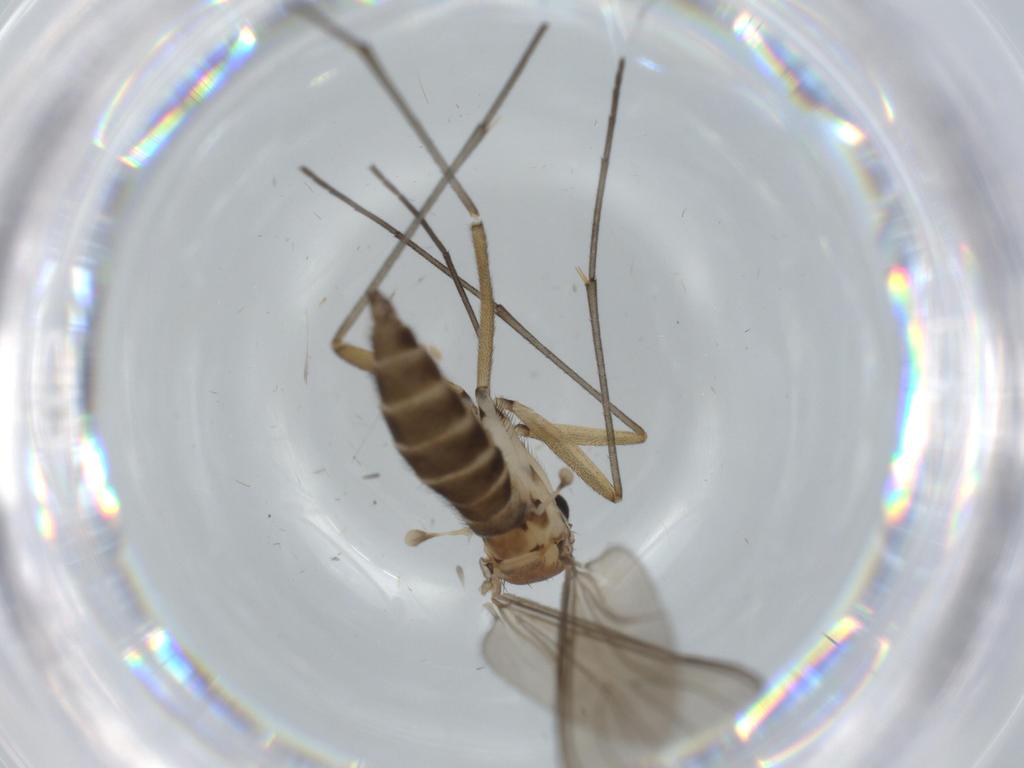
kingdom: Animalia
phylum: Arthropoda
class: Insecta
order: Diptera
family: Sciaridae
